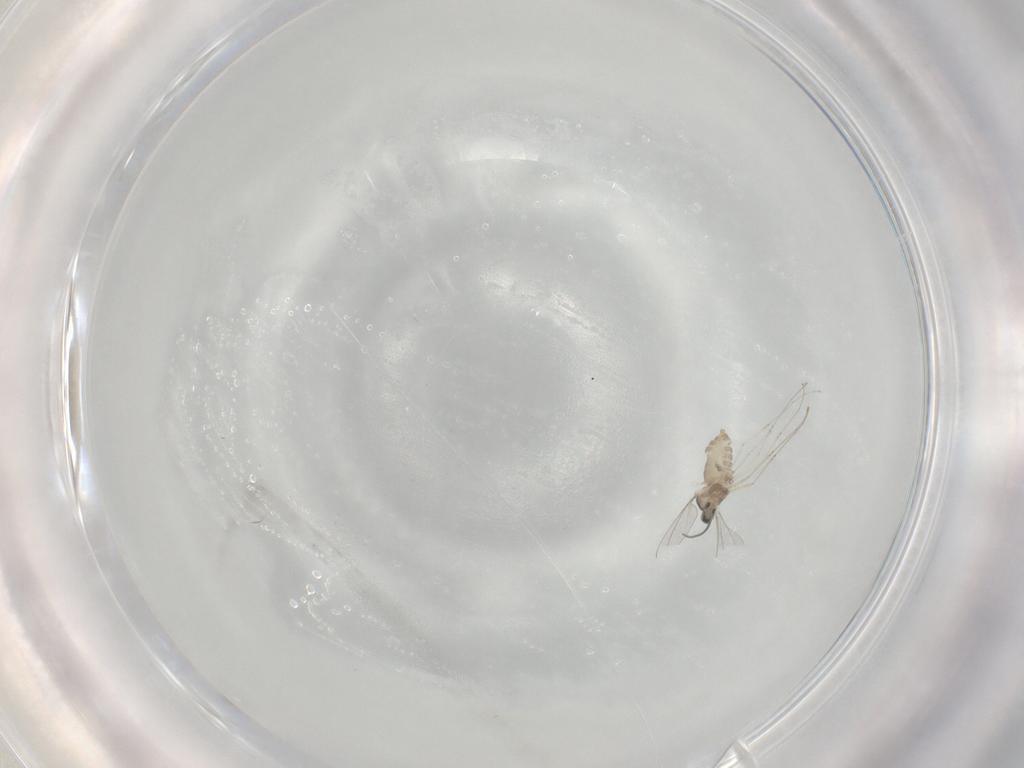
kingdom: Animalia
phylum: Arthropoda
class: Insecta
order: Diptera
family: Cecidomyiidae
